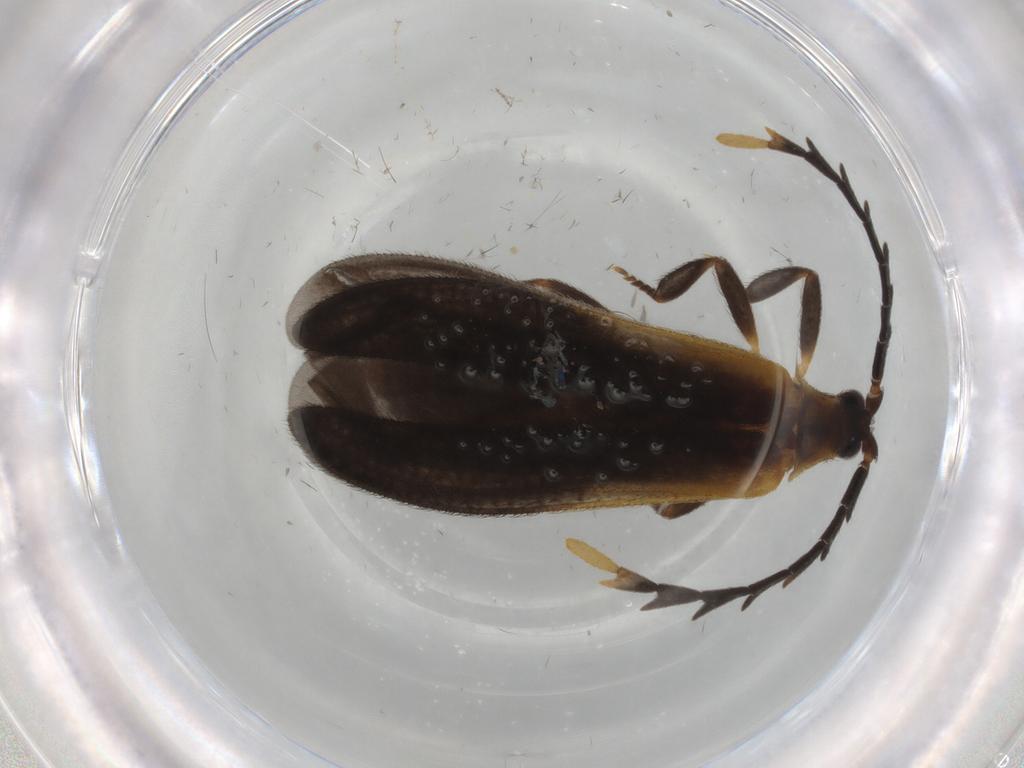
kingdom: Animalia
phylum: Arthropoda
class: Insecta
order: Coleoptera
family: Lycidae
